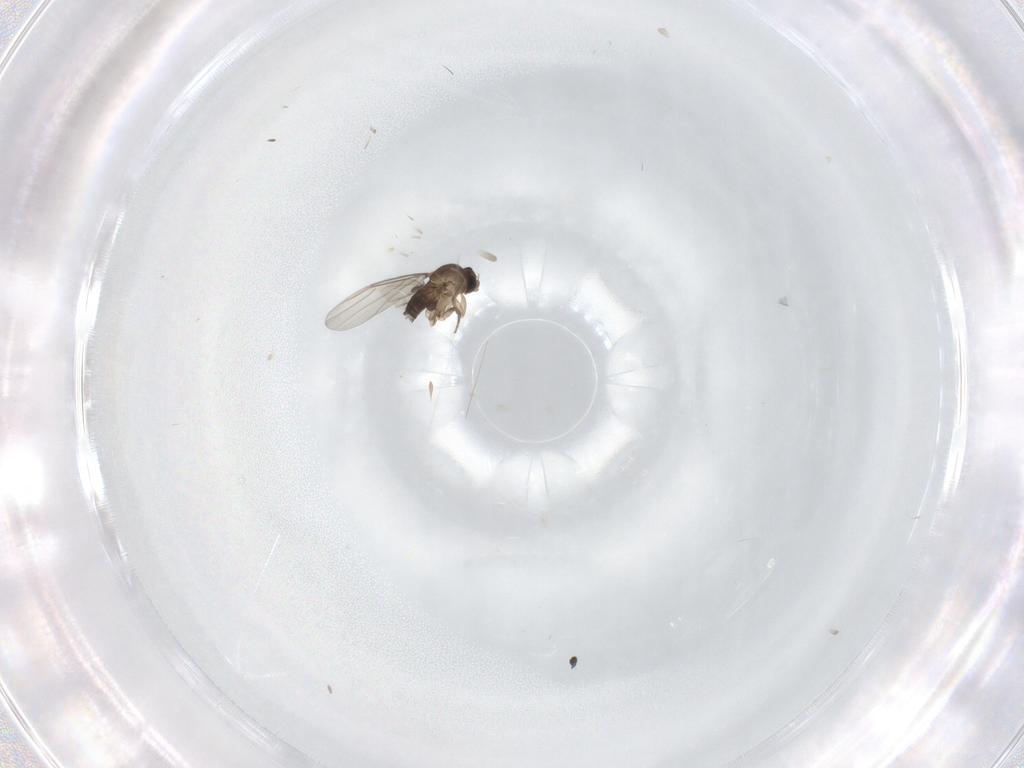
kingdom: Animalia
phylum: Arthropoda
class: Insecta
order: Diptera
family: Phoridae
